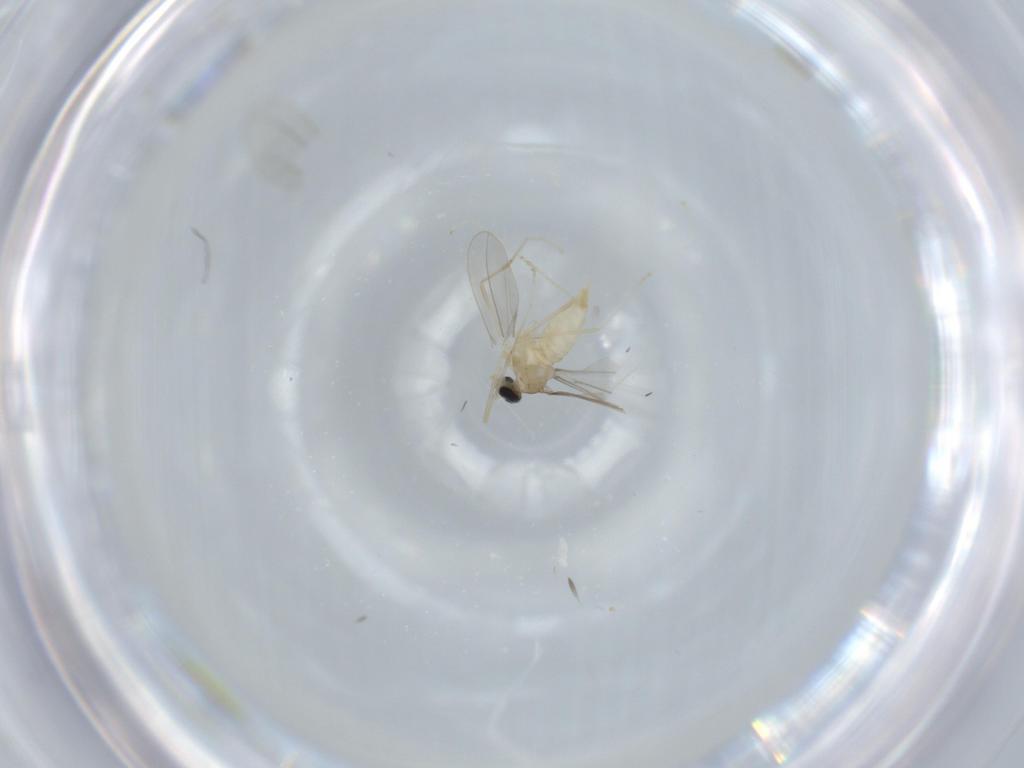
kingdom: Animalia
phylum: Arthropoda
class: Insecta
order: Diptera
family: Cecidomyiidae
